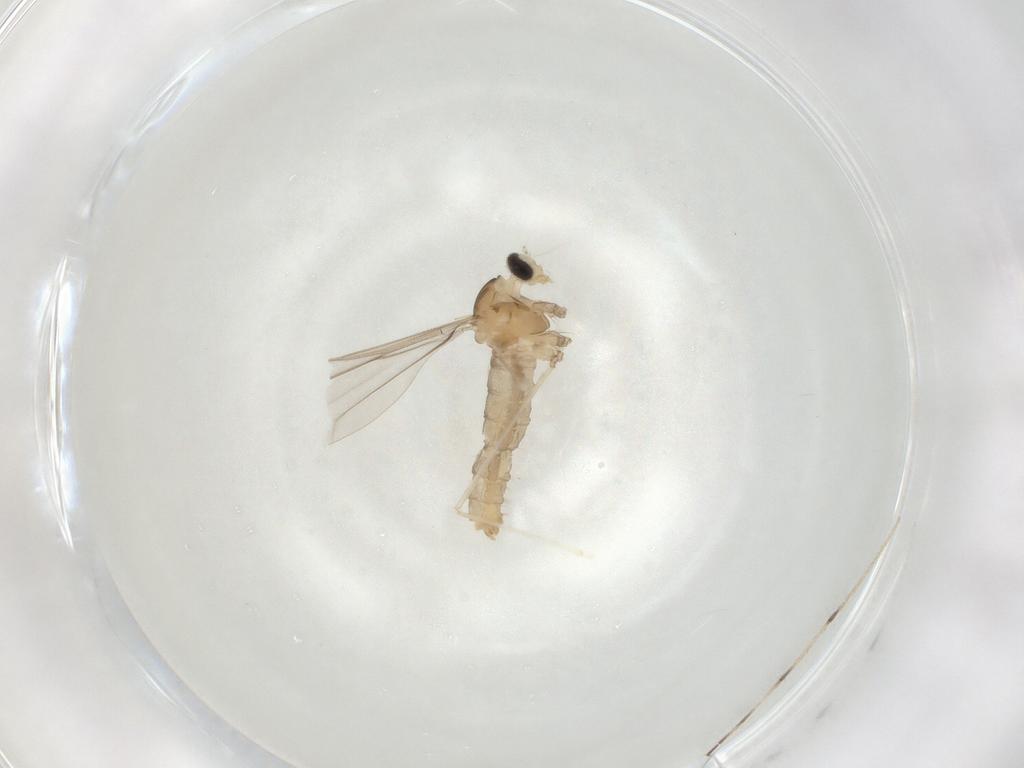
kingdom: Animalia
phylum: Arthropoda
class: Insecta
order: Diptera
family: Cecidomyiidae
